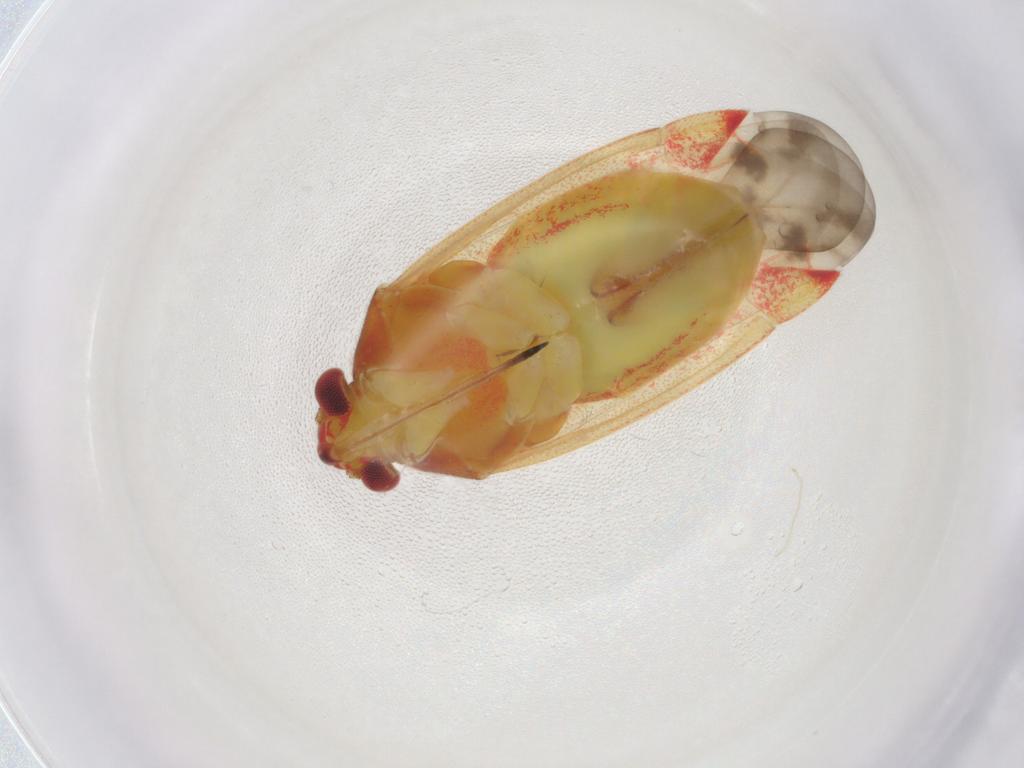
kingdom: Animalia
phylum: Arthropoda
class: Insecta
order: Hemiptera
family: Miridae
